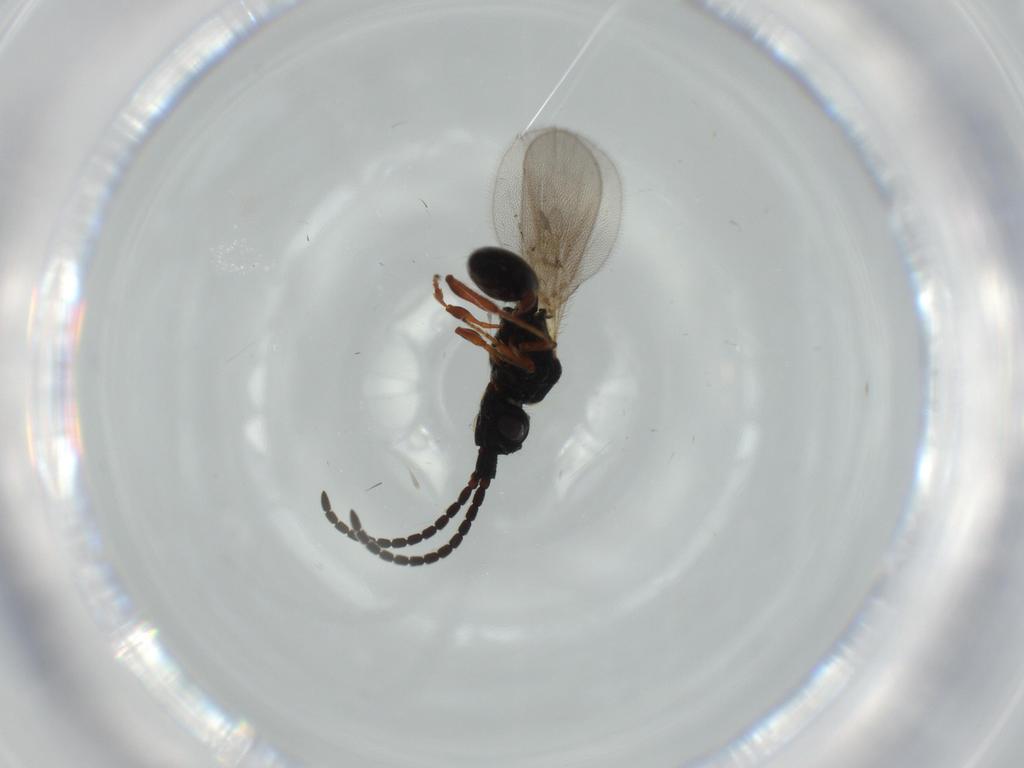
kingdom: Animalia
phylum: Arthropoda
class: Insecta
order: Hymenoptera
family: Diapriidae
